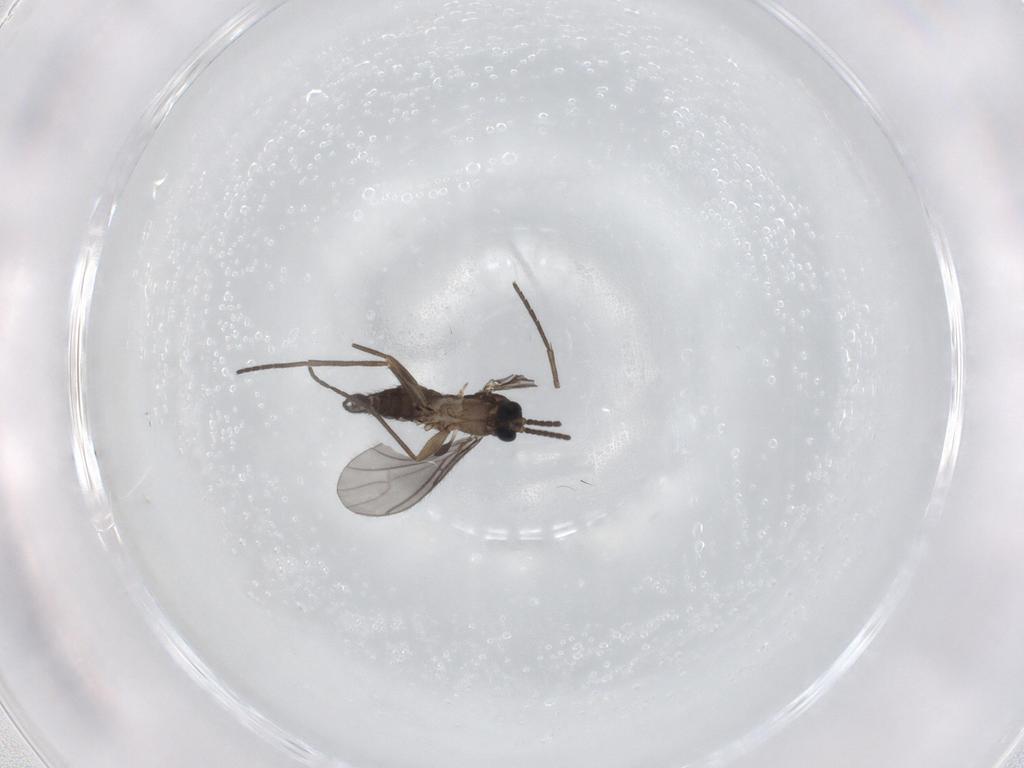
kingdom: Animalia
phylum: Arthropoda
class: Insecta
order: Diptera
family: Sciaridae
